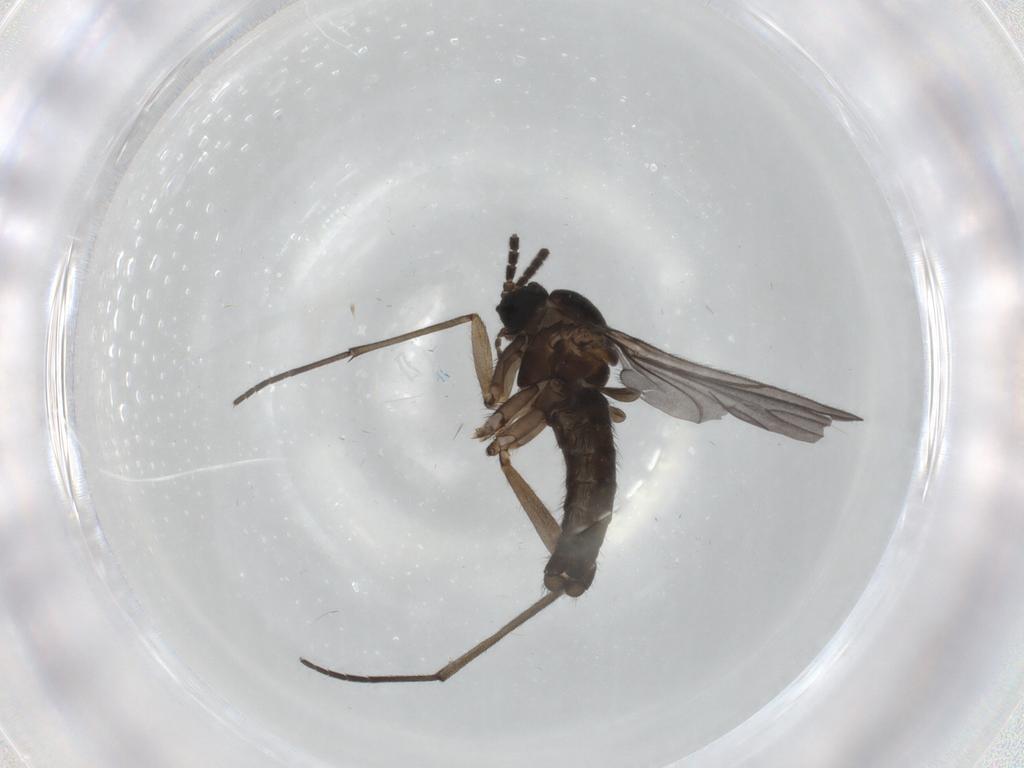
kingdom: Animalia
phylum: Arthropoda
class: Insecta
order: Diptera
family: Sciaridae
